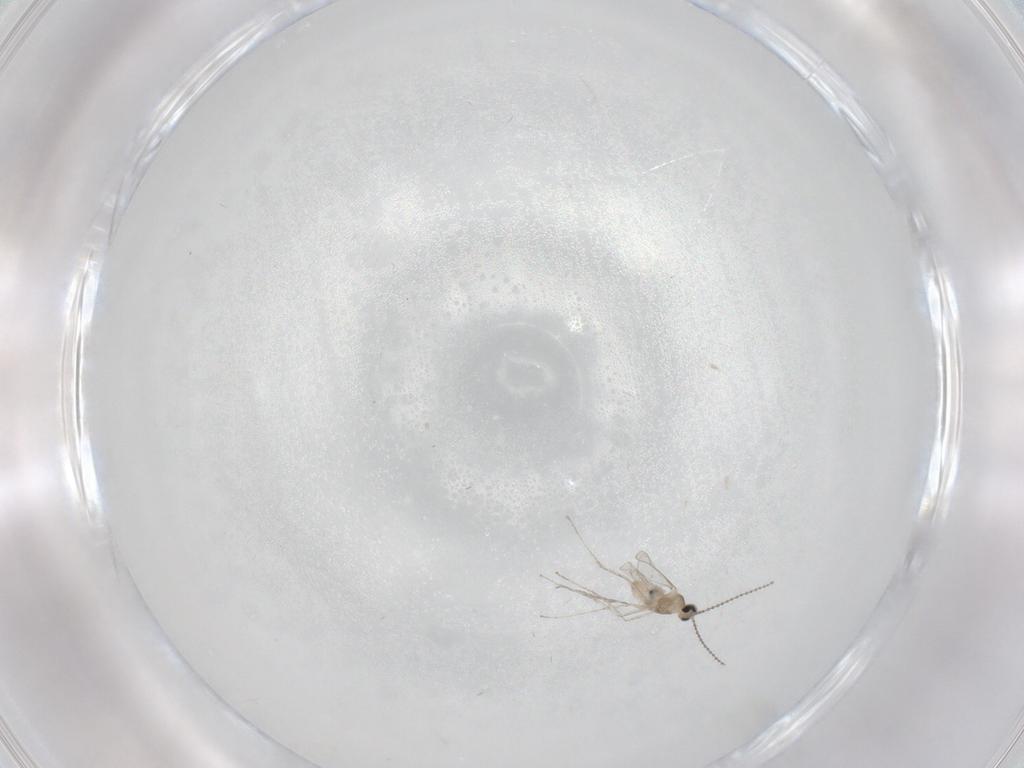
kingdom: Animalia
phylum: Arthropoda
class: Insecta
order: Diptera
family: Cecidomyiidae
